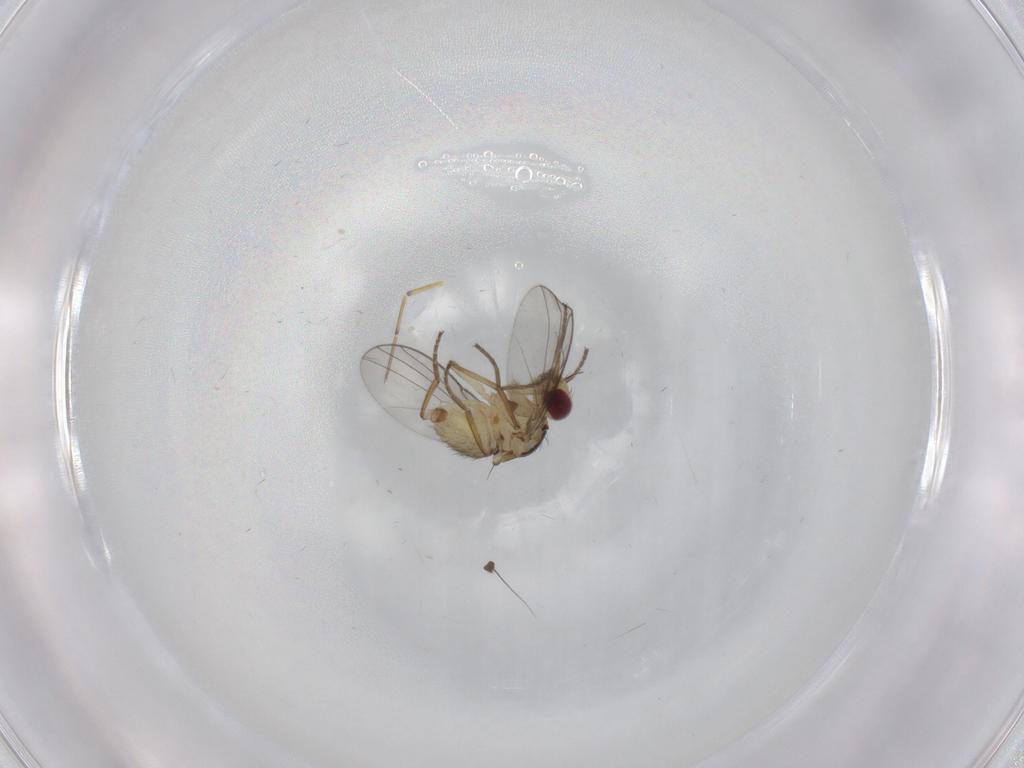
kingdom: Animalia
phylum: Arthropoda
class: Insecta
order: Diptera
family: Agromyzidae
